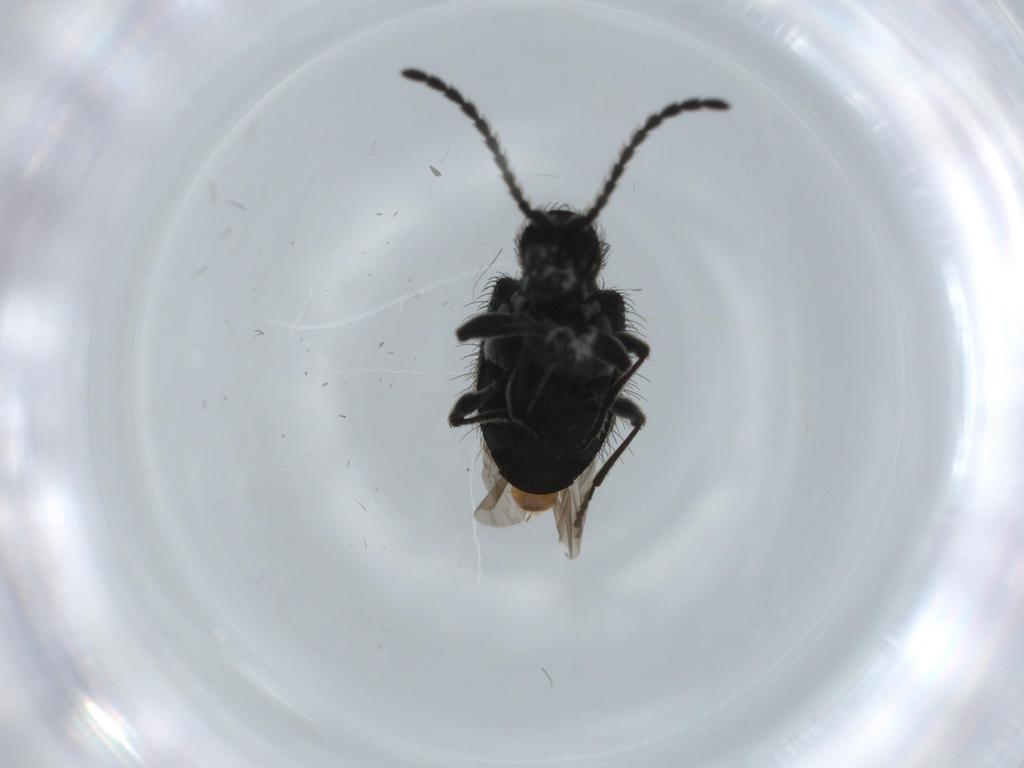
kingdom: Animalia
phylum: Arthropoda
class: Insecta
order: Coleoptera
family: Ptinidae
